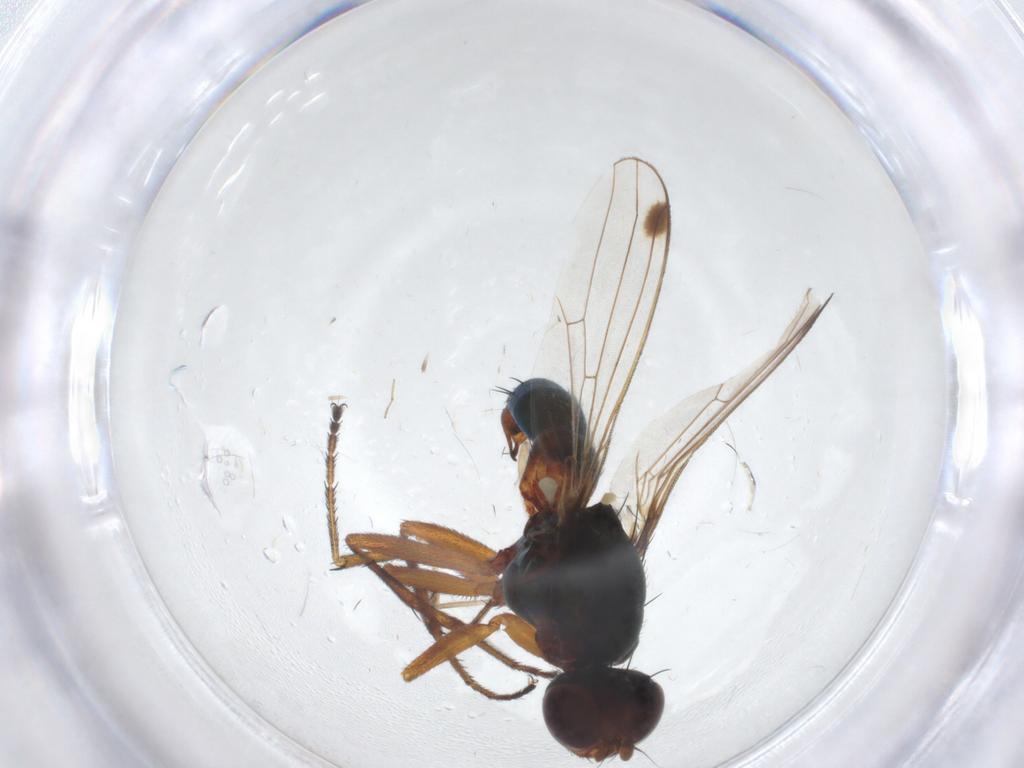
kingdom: Animalia
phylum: Arthropoda
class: Insecta
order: Diptera
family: Sepsidae
